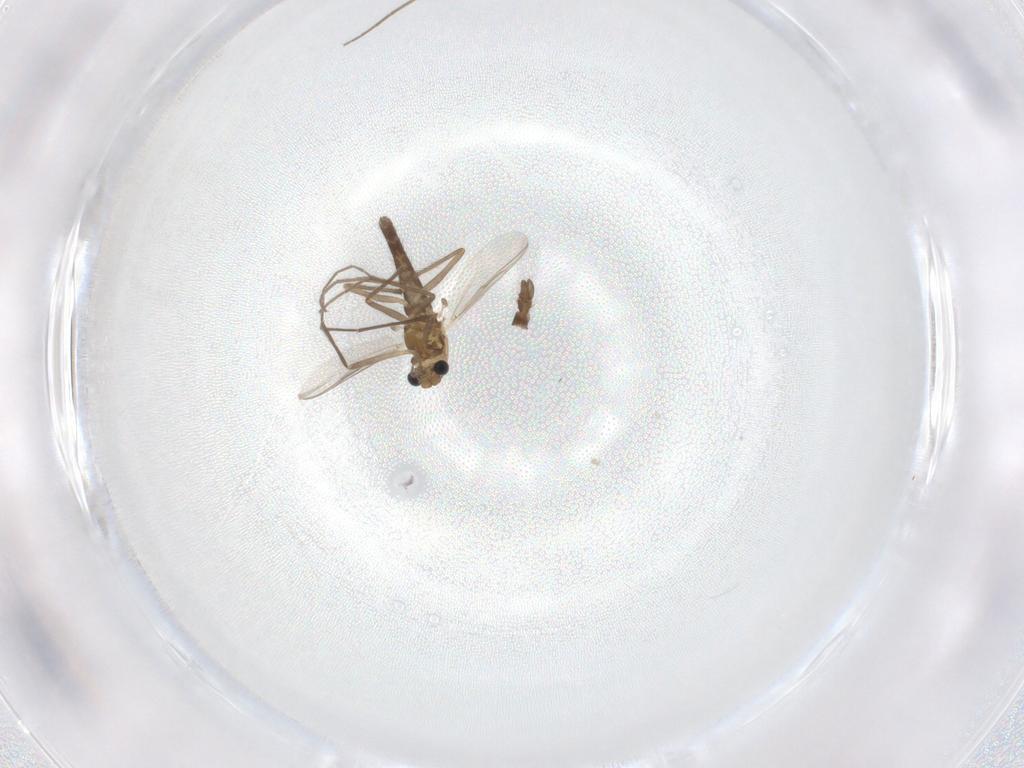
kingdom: Animalia
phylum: Arthropoda
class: Insecta
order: Diptera
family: Chironomidae
